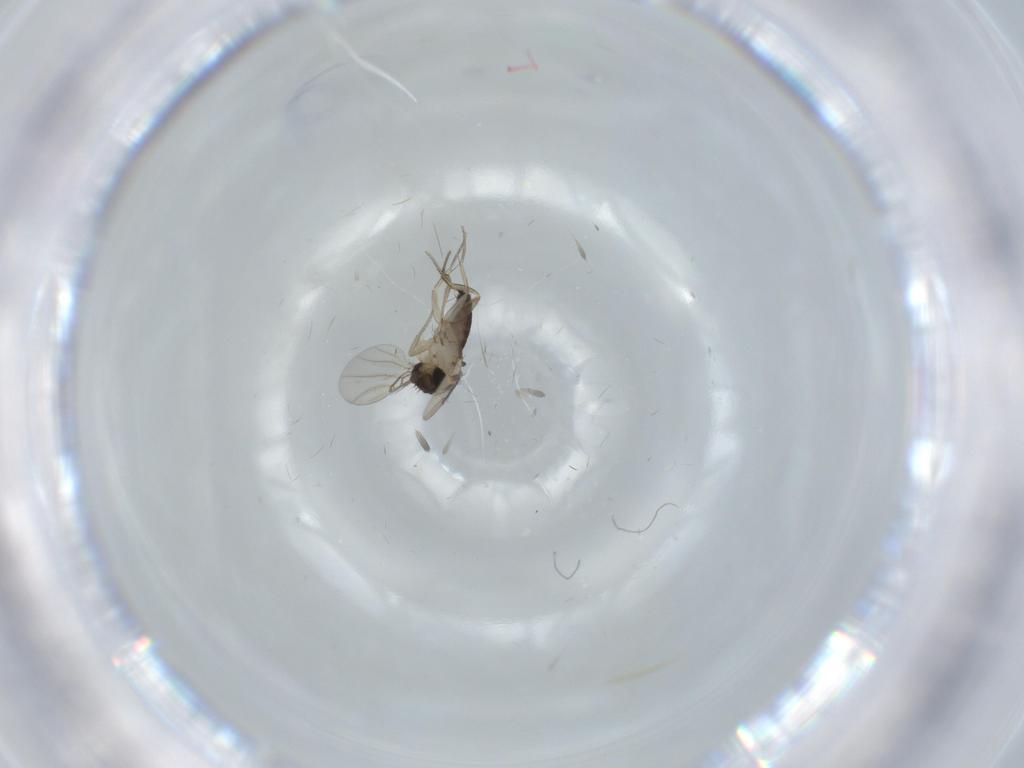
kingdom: Animalia
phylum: Arthropoda
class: Insecta
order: Diptera
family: Phoridae
